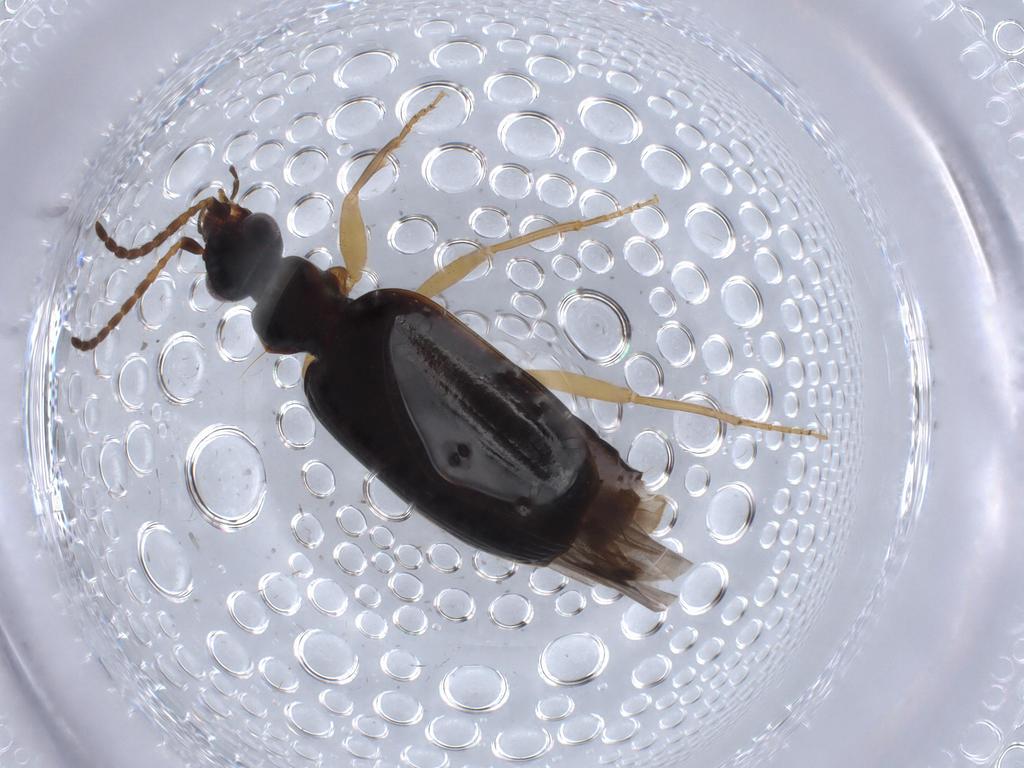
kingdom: Animalia
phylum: Arthropoda
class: Insecta
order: Coleoptera
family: Carabidae
